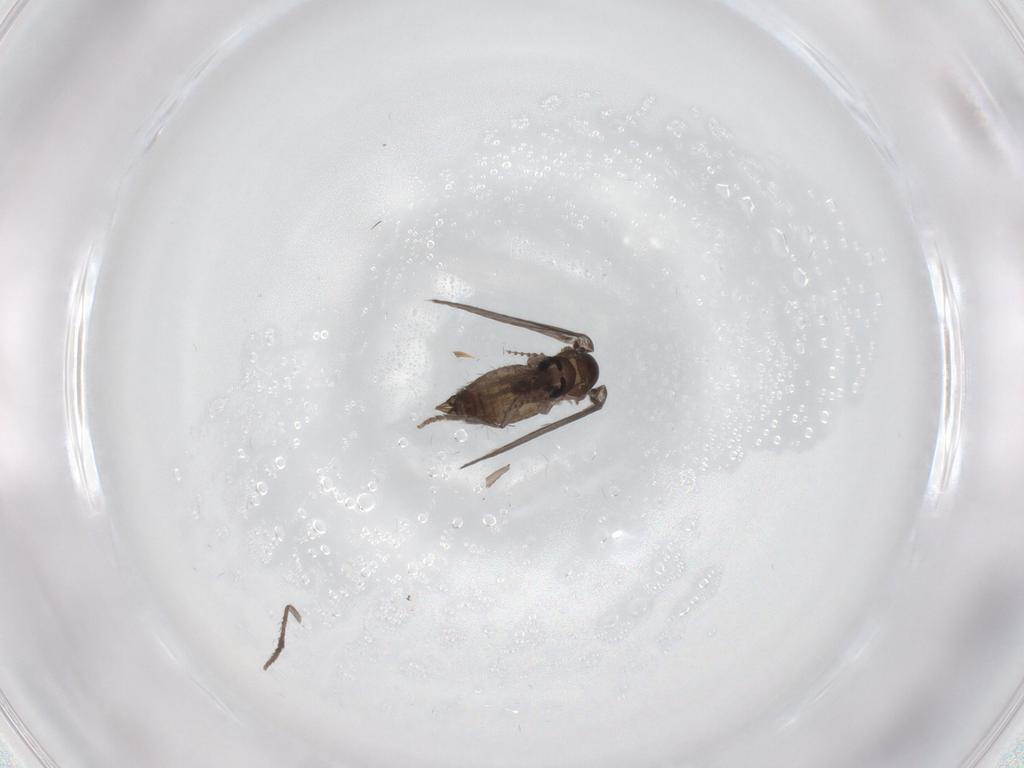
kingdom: Animalia
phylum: Arthropoda
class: Insecta
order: Diptera
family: Psychodidae
